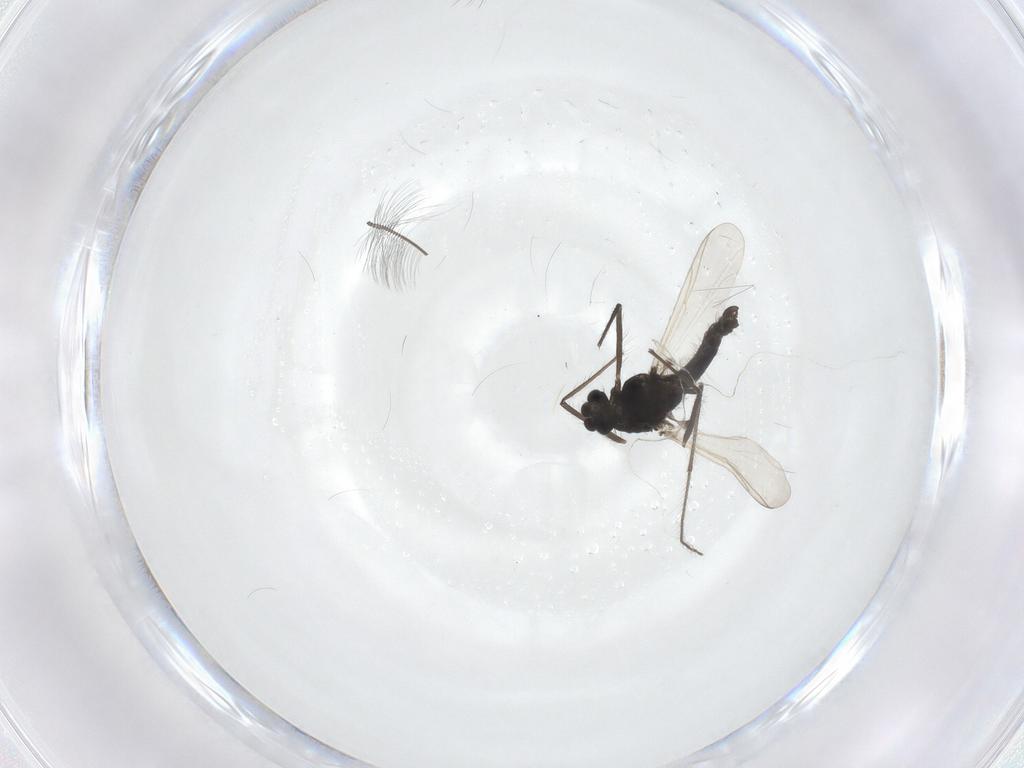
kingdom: Animalia
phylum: Arthropoda
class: Insecta
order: Diptera
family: Chironomidae
